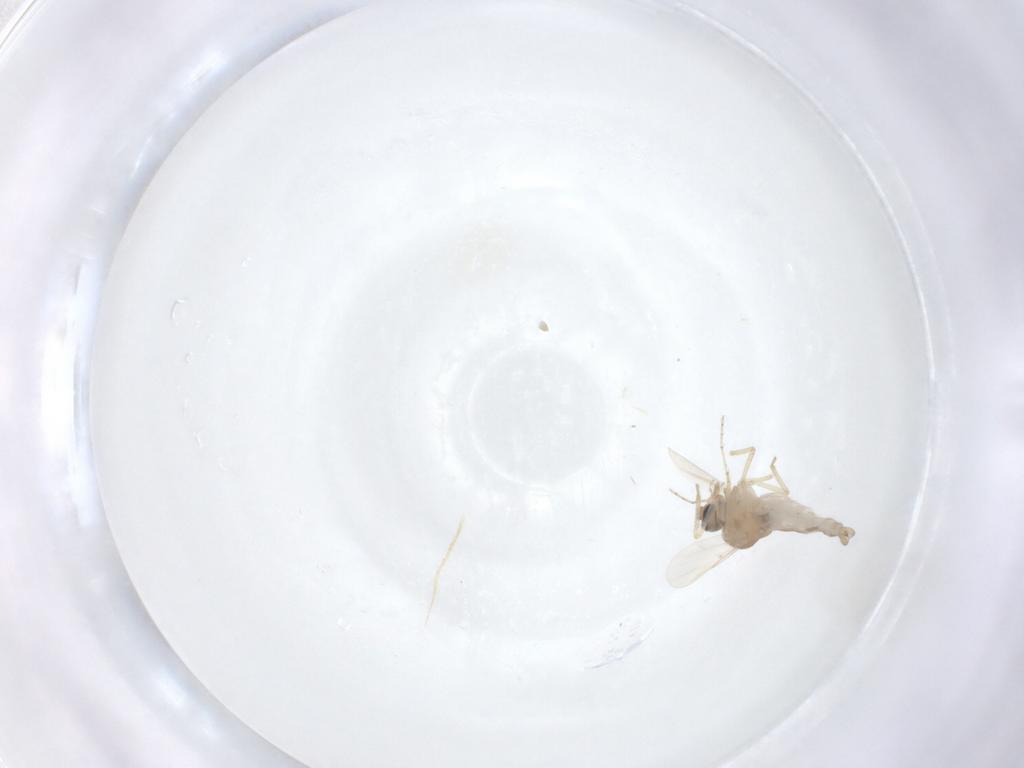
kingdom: Animalia
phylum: Arthropoda
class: Insecta
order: Diptera
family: Ceratopogonidae
